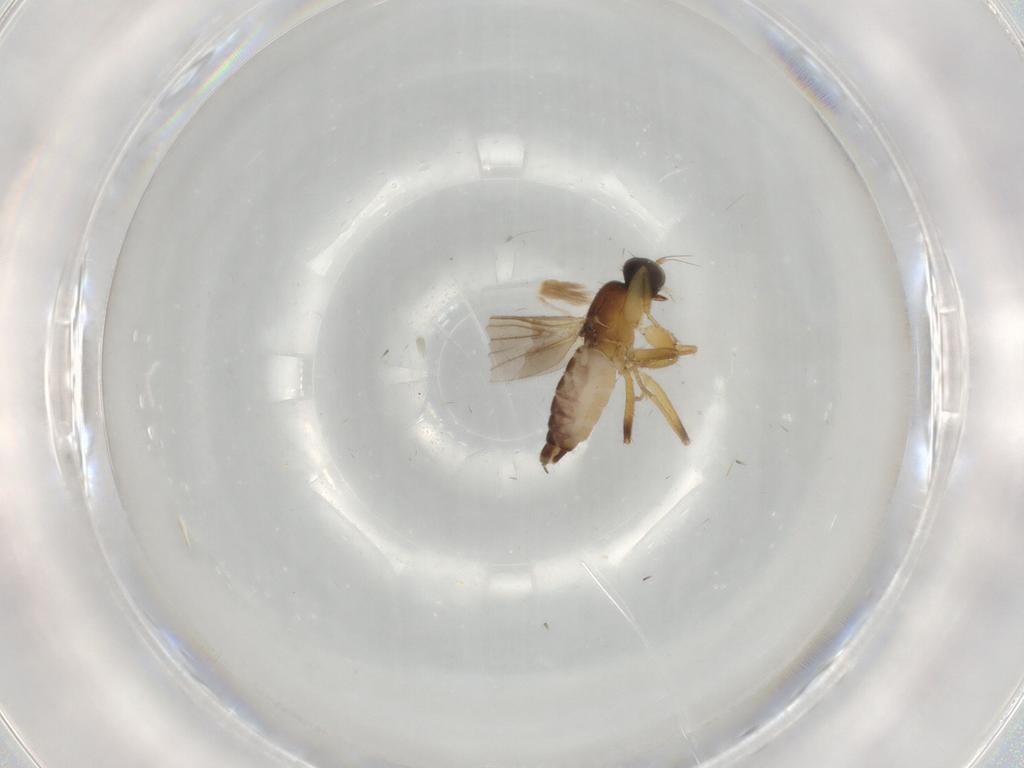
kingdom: Animalia
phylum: Arthropoda
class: Insecta
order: Diptera
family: Hybotidae
